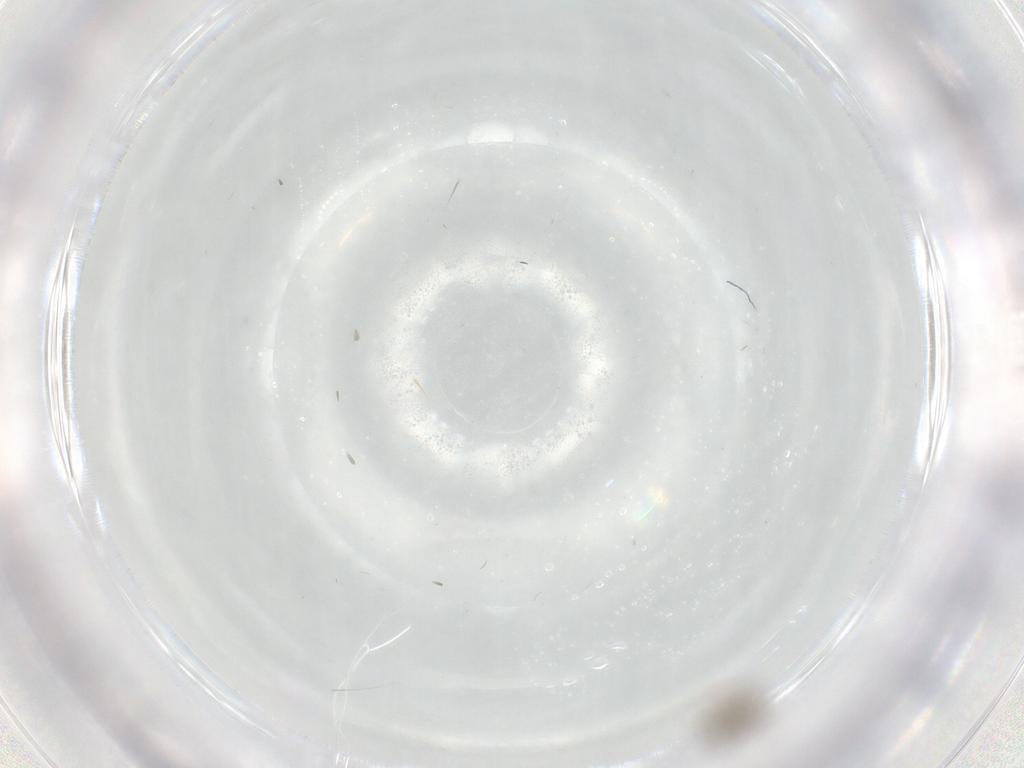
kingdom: Animalia
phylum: Arthropoda
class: Insecta
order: Diptera
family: Cecidomyiidae
